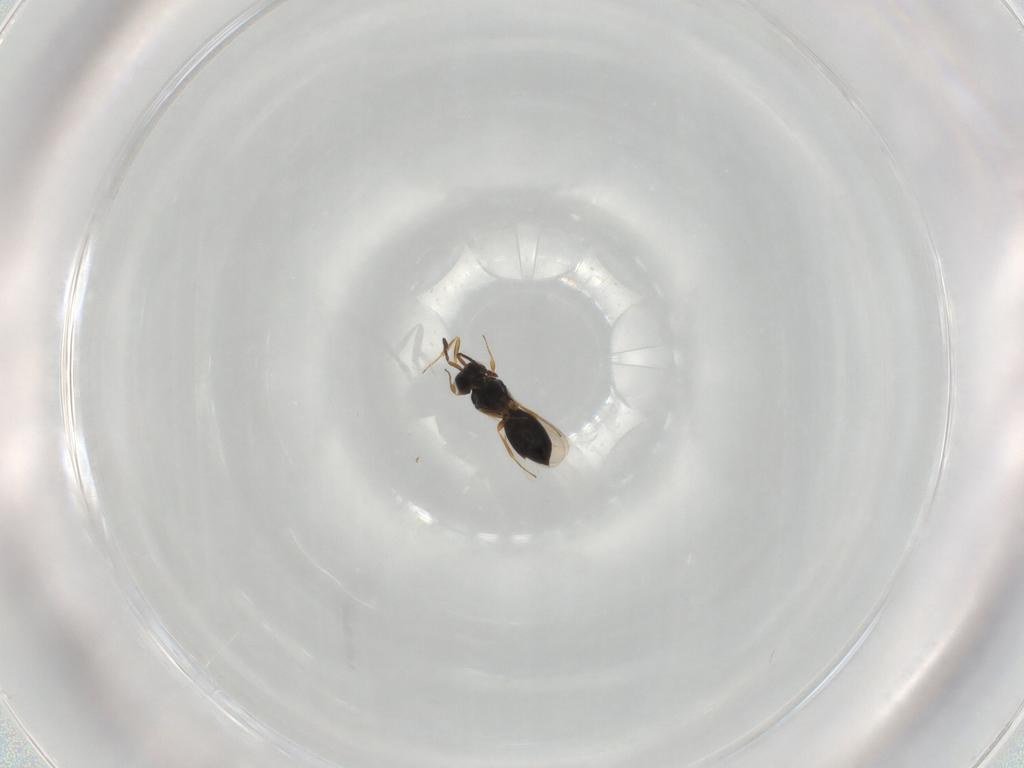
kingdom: Animalia
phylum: Arthropoda
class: Insecta
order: Hymenoptera
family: Scelionidae
